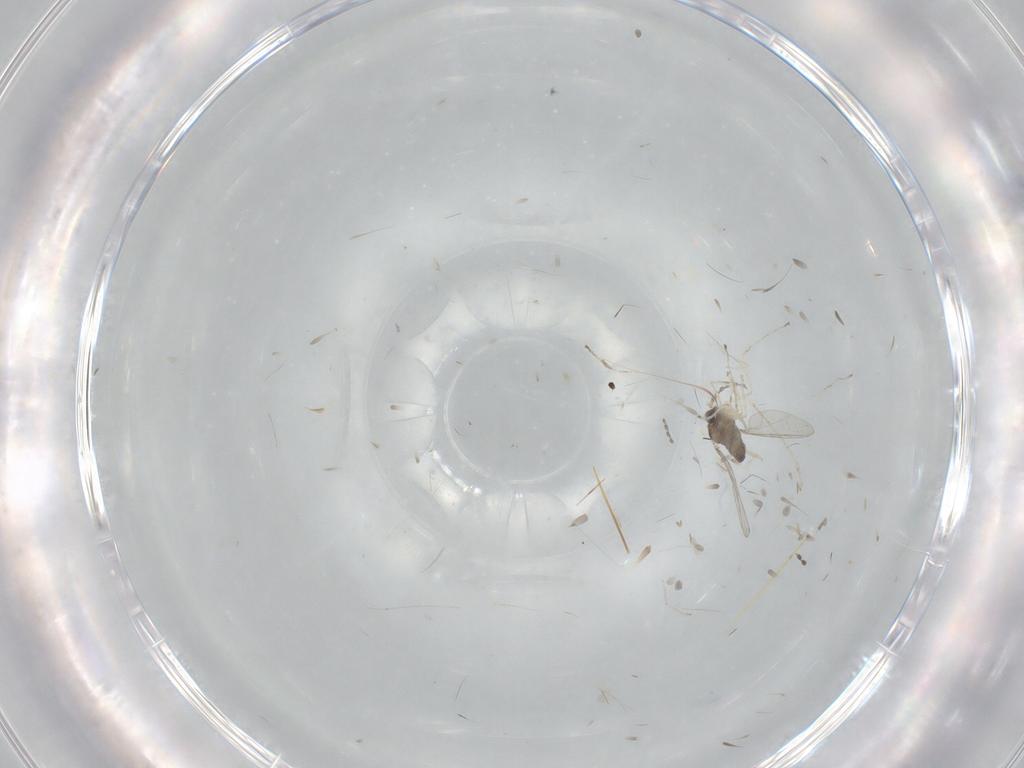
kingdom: Animalia
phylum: Arthropoda
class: Insecta
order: Diptera
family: Cecidomyiidae
